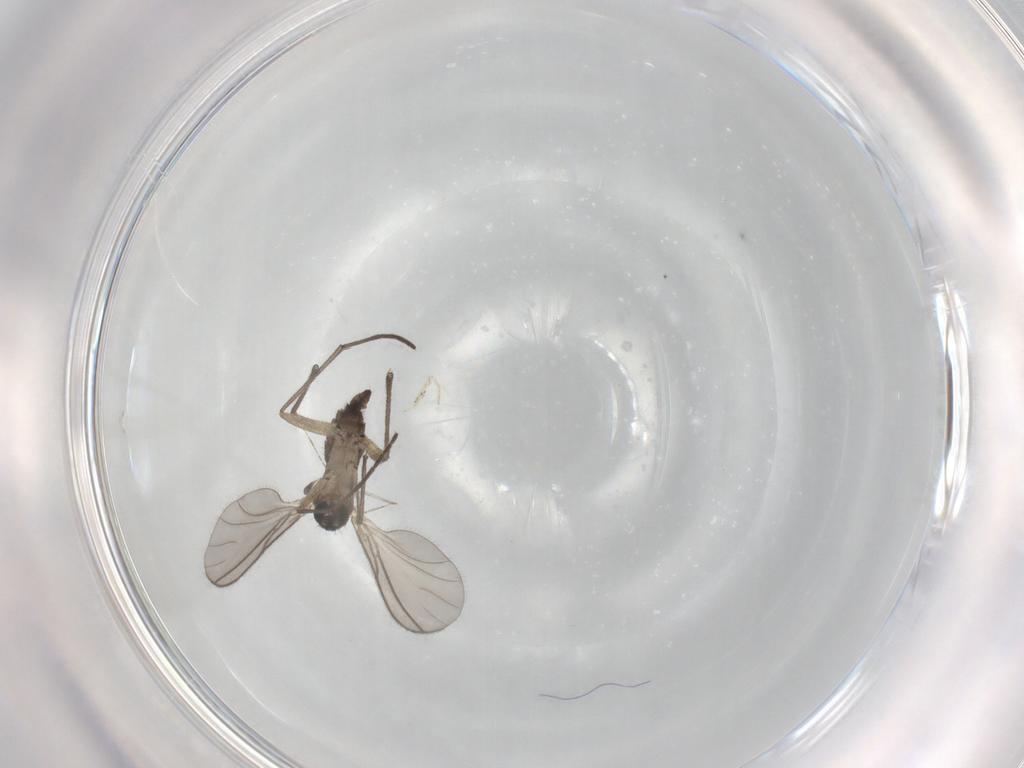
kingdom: Animalia
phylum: Arthropoda
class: Insecta
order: Diptera
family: Sciaridae
